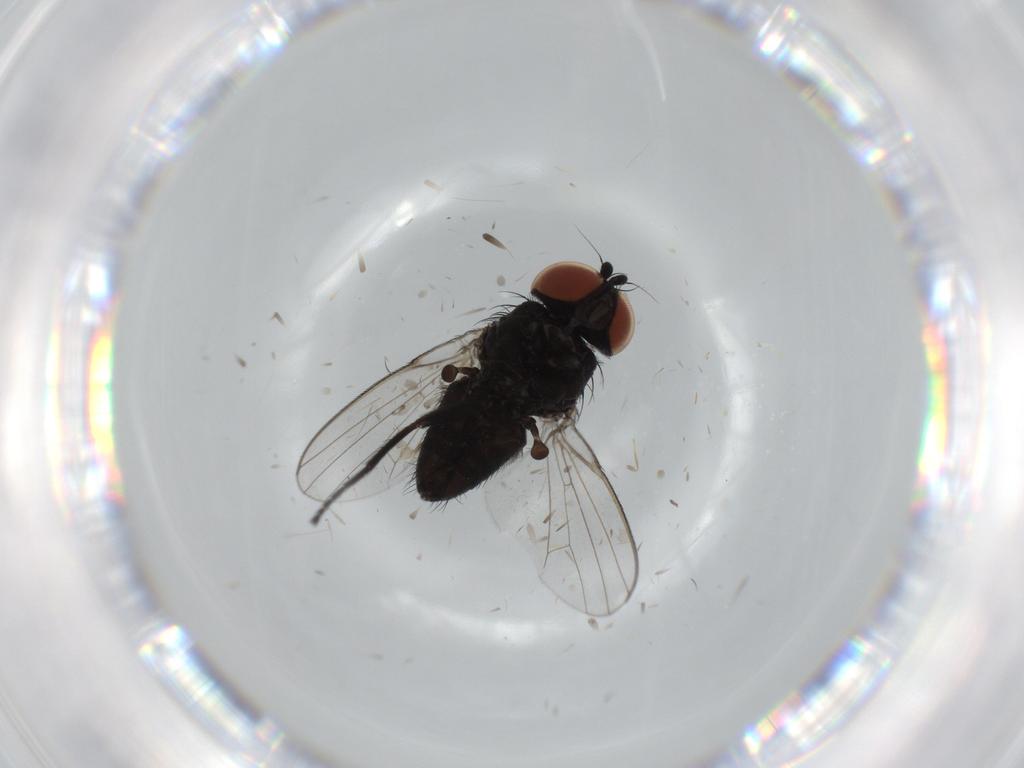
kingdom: Animalia
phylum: Arthropoda
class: Insecta
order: Diptera
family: Milichiidae
